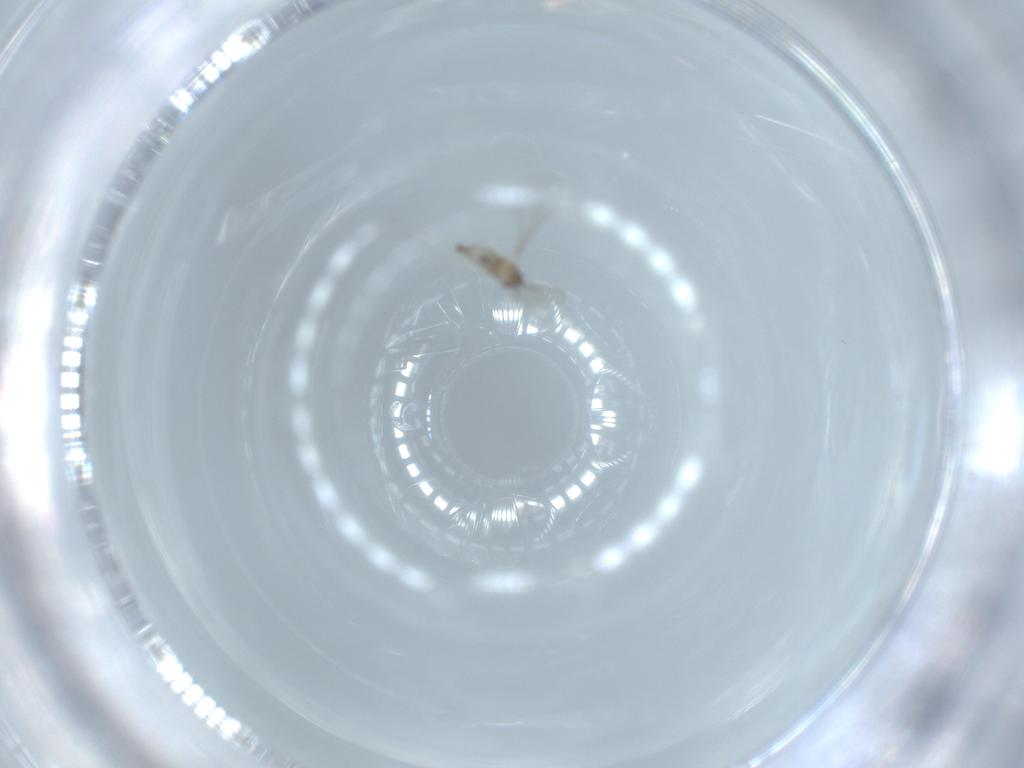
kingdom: Animalia
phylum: Arthropoda
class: Insecta
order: Diptera
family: Cecidomyiidae
